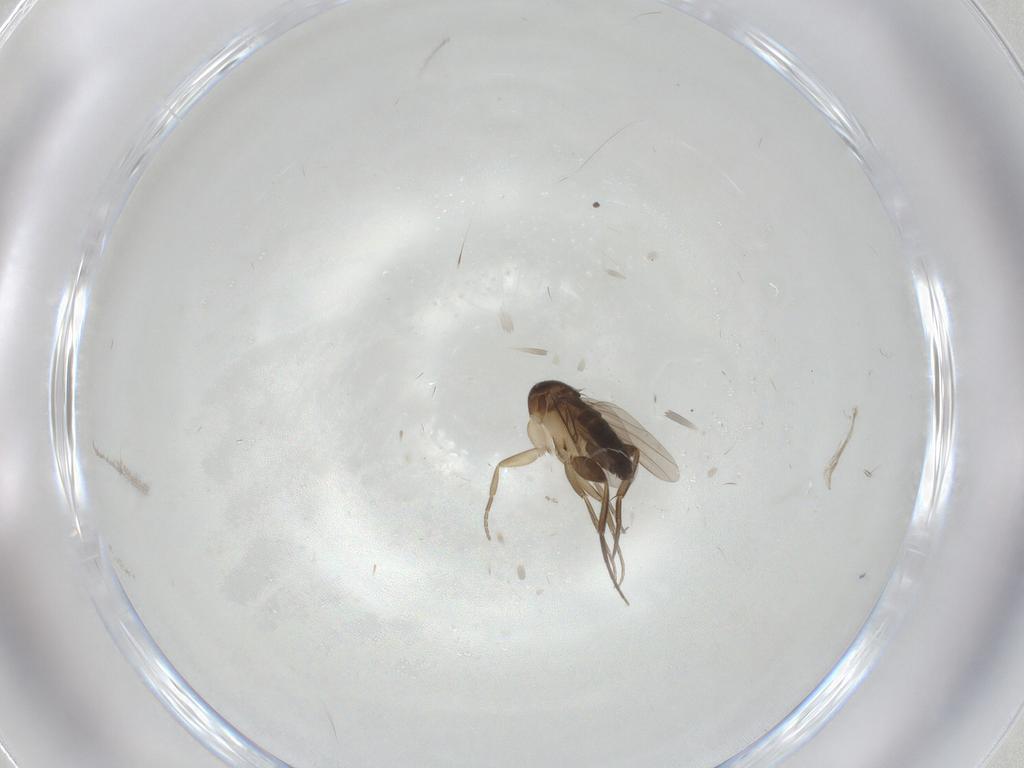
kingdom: Animalia
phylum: Arthropoda
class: Insecta
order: Diptera
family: Phoridae
